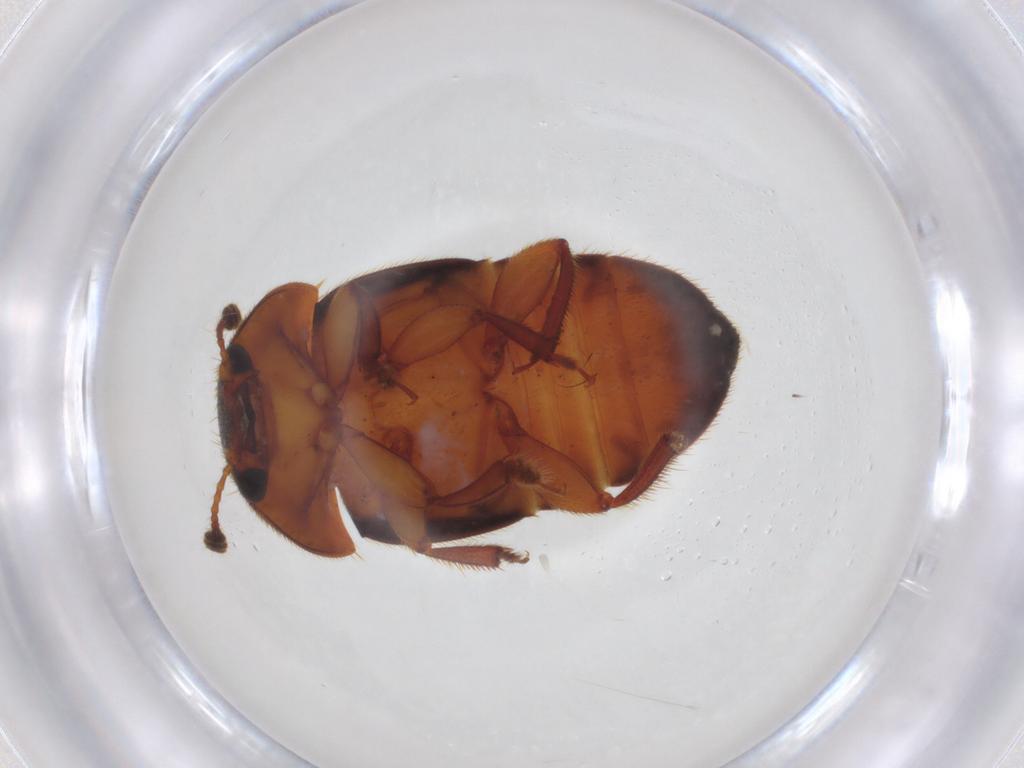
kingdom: Animalia
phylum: Arthropoda
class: Insecta
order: Coleoptera
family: Nitidulidae
